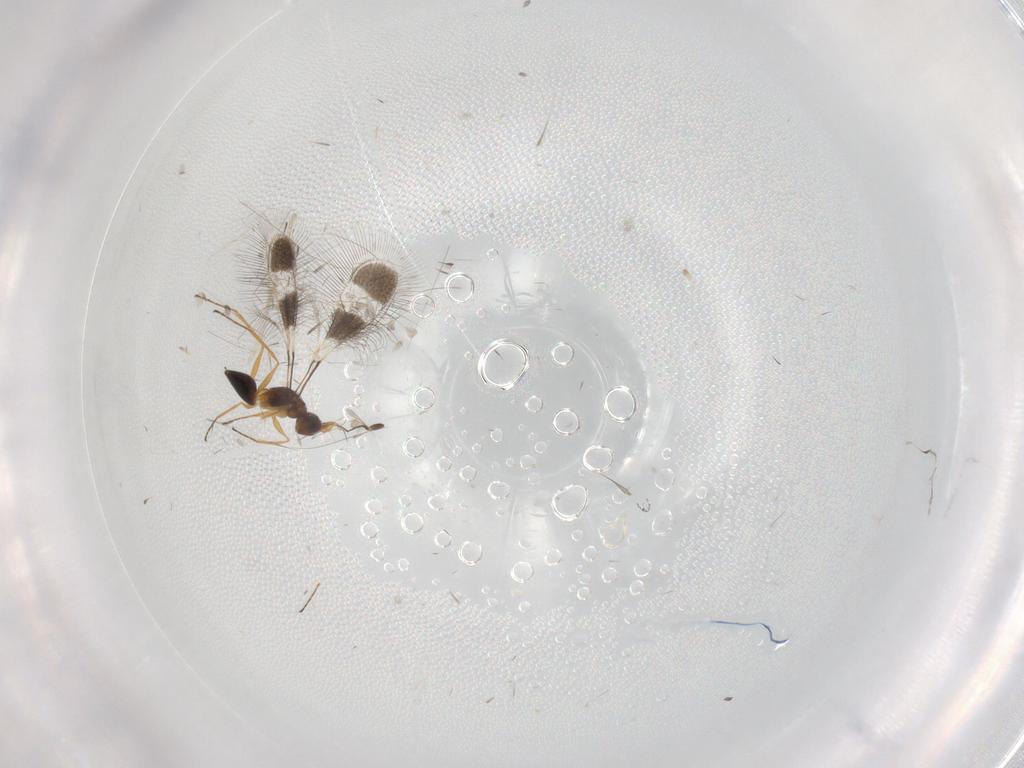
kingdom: Animalia
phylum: Arthropoda
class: Insecta
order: Hymenoptera
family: Eulophidae
